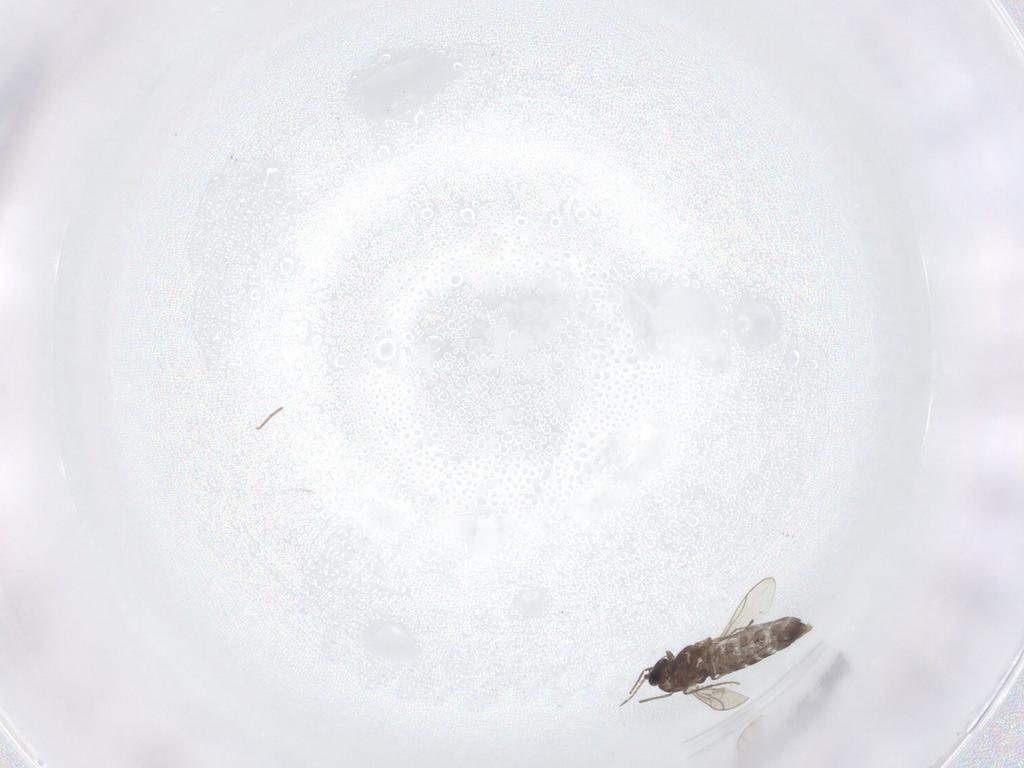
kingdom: Animalia
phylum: Arthropoda
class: Insecta
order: Diptera
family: Chironomidae
